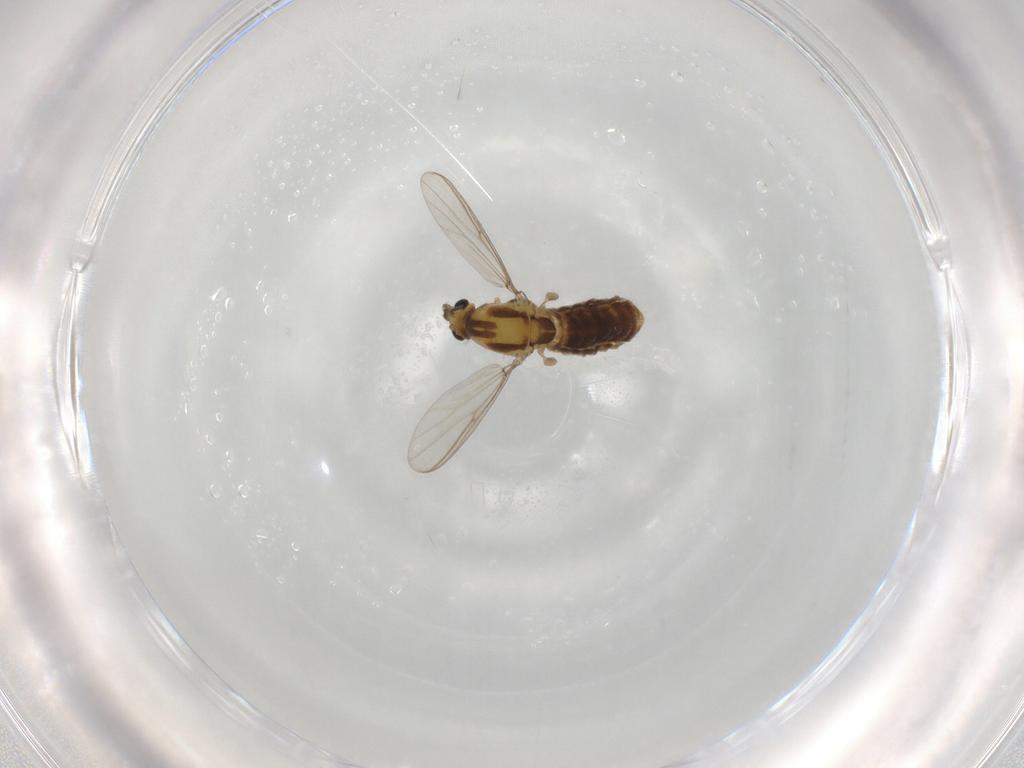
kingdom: Animalia
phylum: Arthropoda
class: Insecta
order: Diptera
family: Chironomidae
